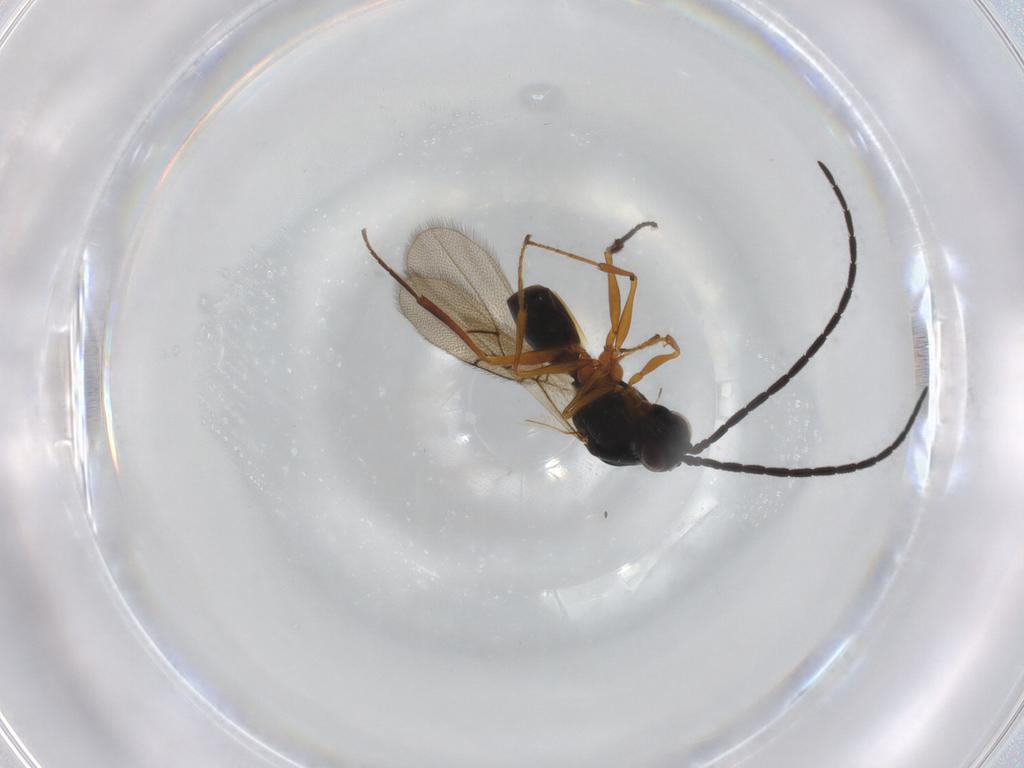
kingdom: Animalia
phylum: Arthropoda
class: Insecta
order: Hymenoptera
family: Figitidae
